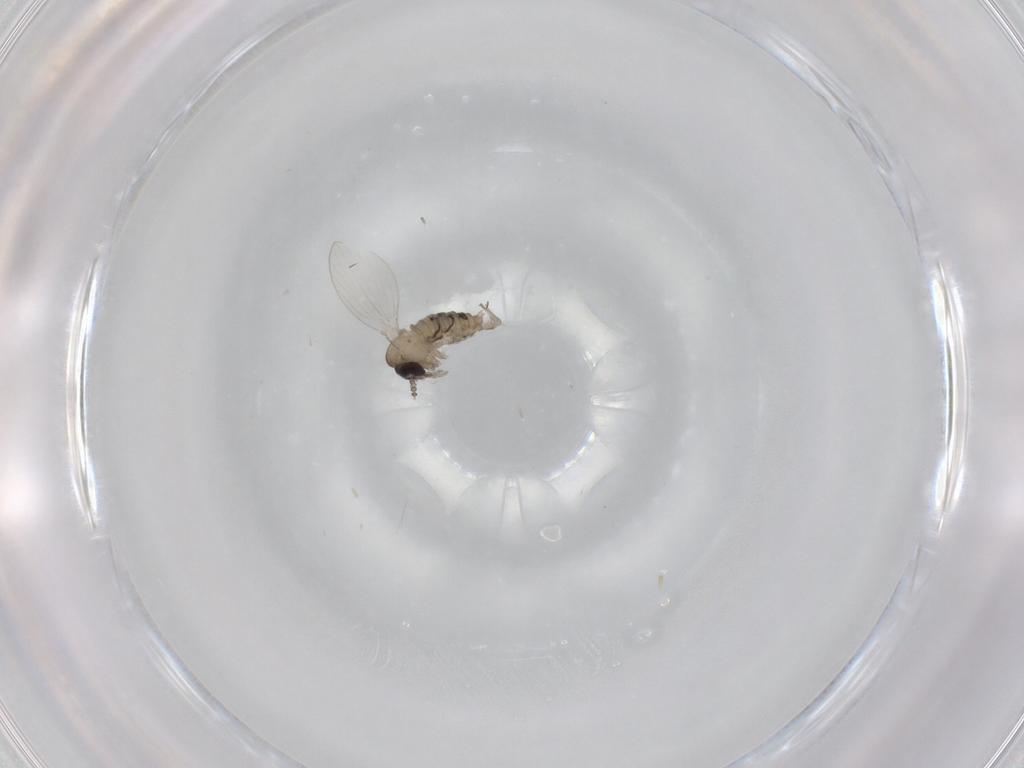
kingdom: Animalia
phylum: Arthropoda
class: Insecta
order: Diptera
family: Psychodidae
